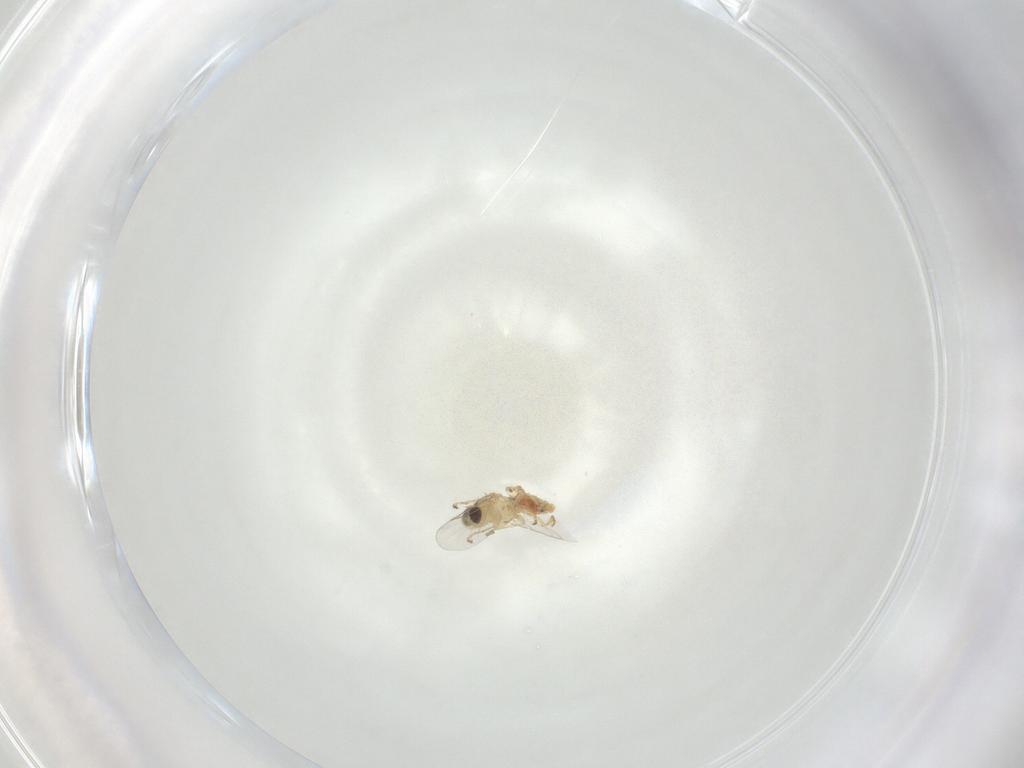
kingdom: Animalia
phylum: Arthropoda
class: Insecta
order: Diptera
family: Agromyzidae
